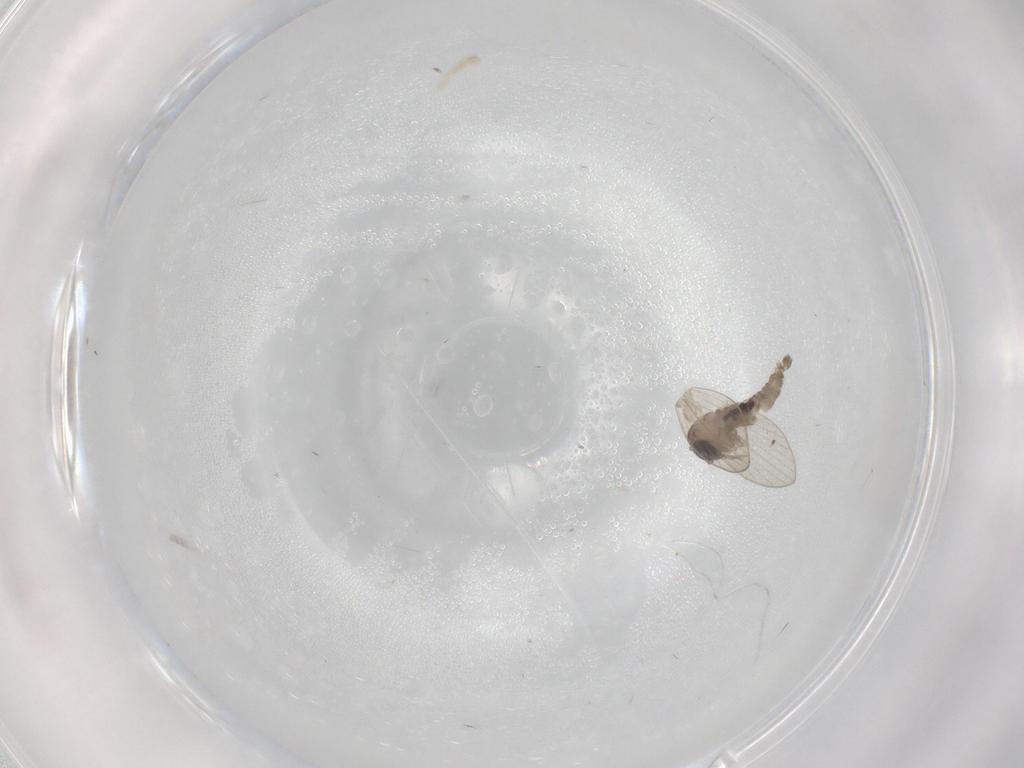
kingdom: Animalia
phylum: Arthropoda
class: Insecta
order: Diptera
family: Psychodidae
